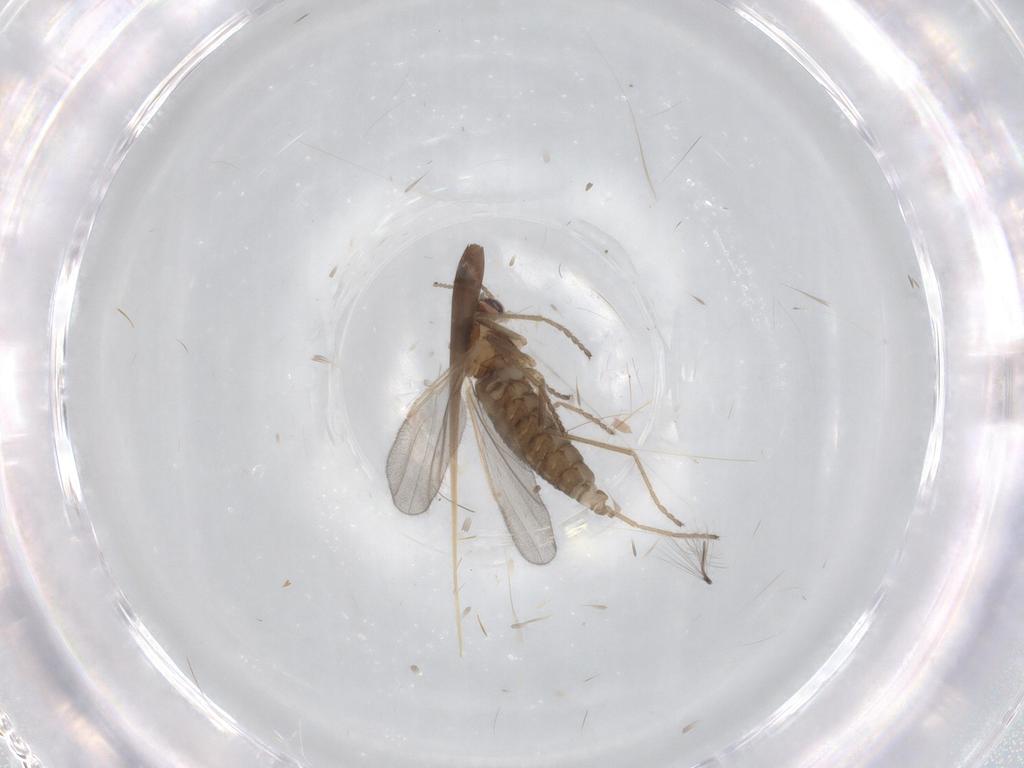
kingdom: Animalia
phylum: Arthropoda
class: Insecta
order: Diptera
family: Cecidomyiidae
